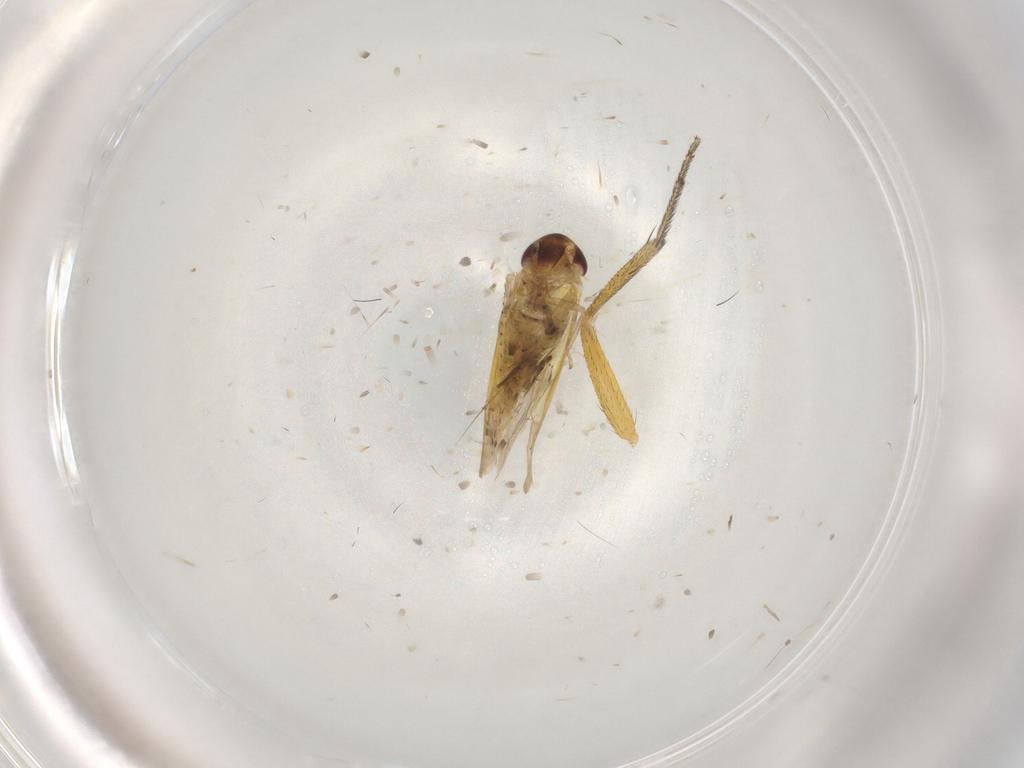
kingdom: Animalia
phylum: Arthropoda
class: Insecta
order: Hemiptera
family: Cicadellidae
